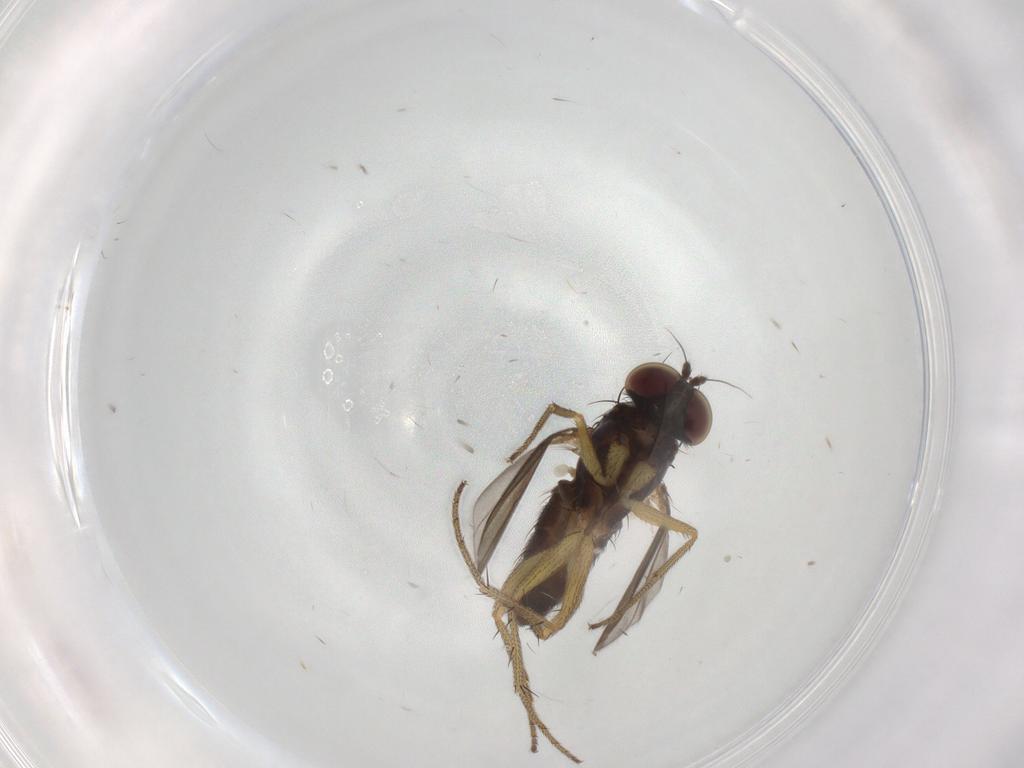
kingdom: Animalia
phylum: Arthropoda
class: Insecta
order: Diptera
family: Dolichopodidae
